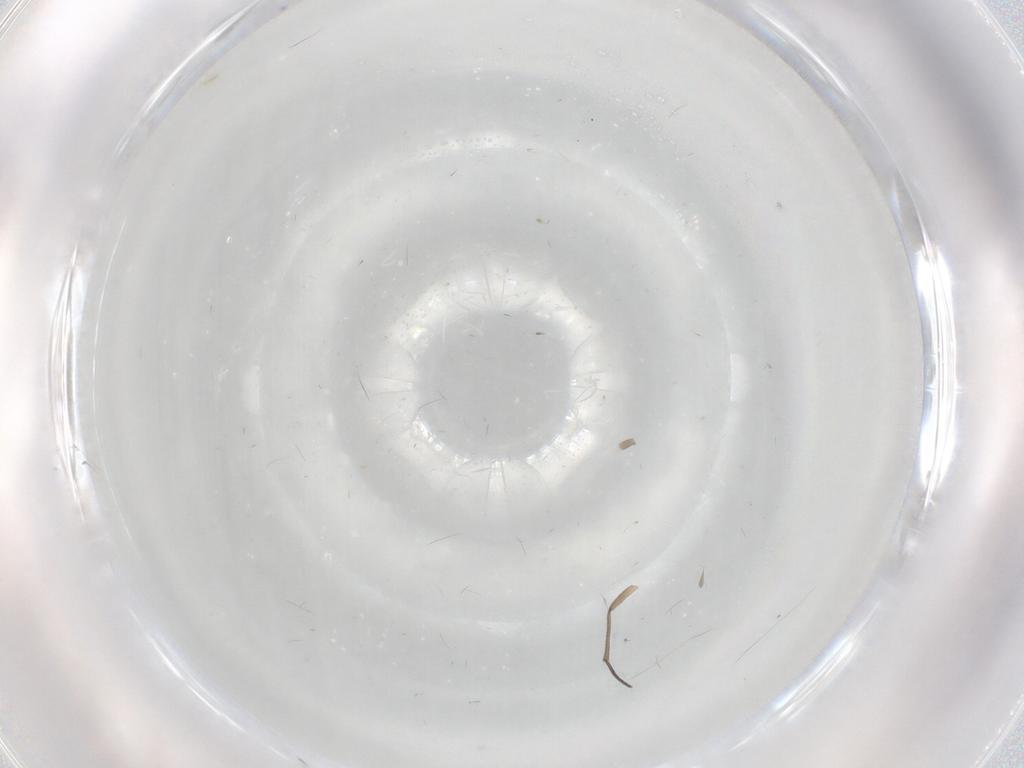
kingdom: Animalia
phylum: Arthropoda
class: Insecta
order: Diptera
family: Sciaridae
